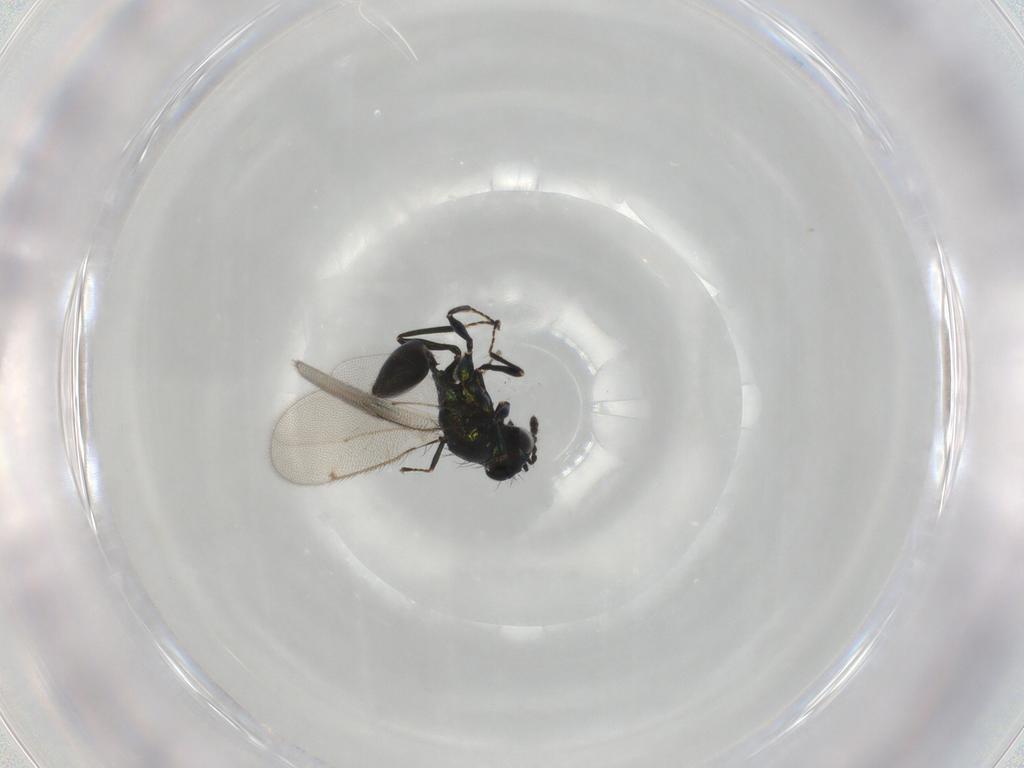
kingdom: Animalia
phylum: Arthropoda
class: Insecta
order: Hymenoptera
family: Eulophidae
